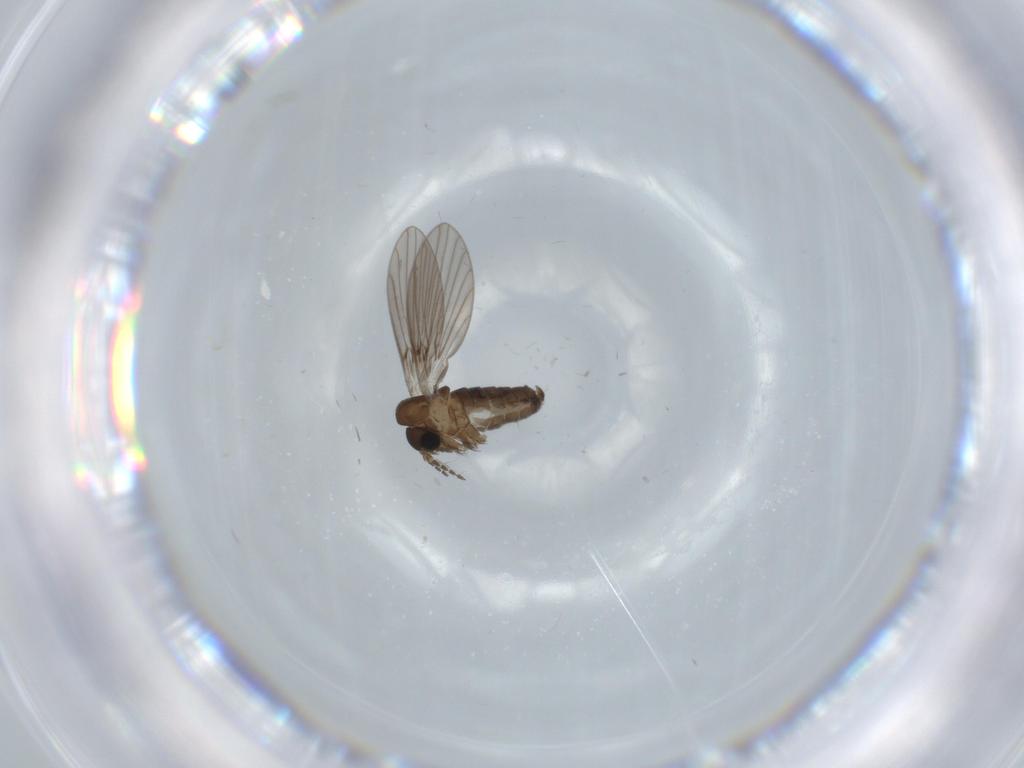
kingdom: Animalia
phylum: Arthropoda
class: Insecta
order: Diptera
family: Psychodidae
